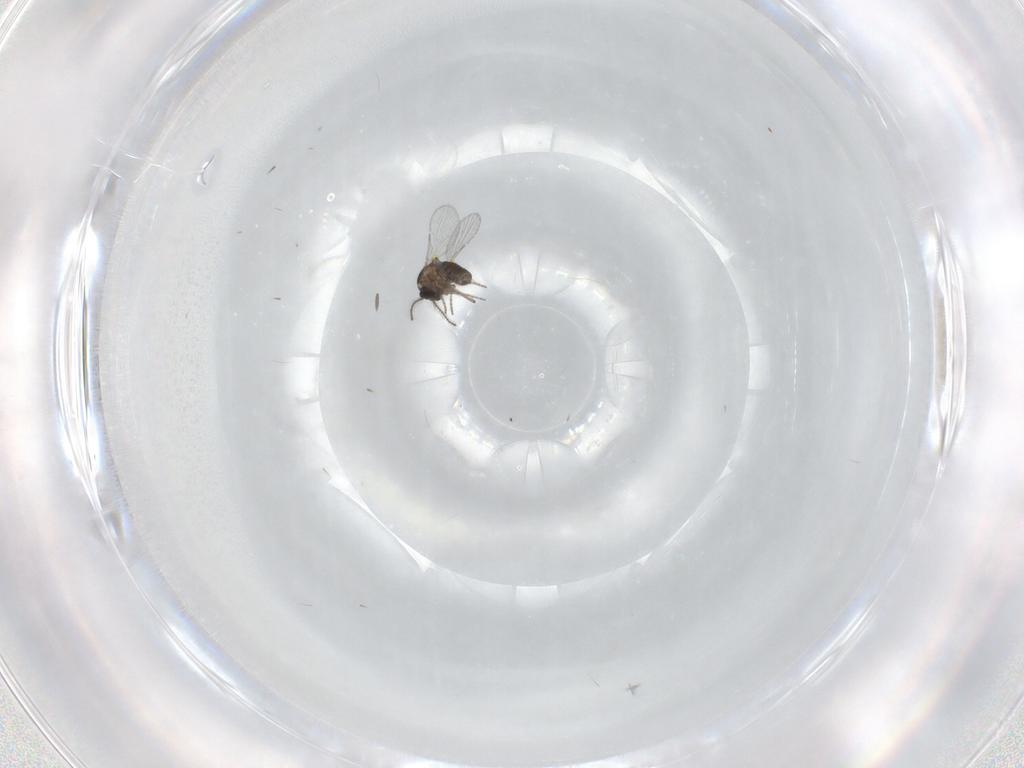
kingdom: Animalia
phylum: Arthropoda
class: Insecta
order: Diptera
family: Ceratopogonidae
